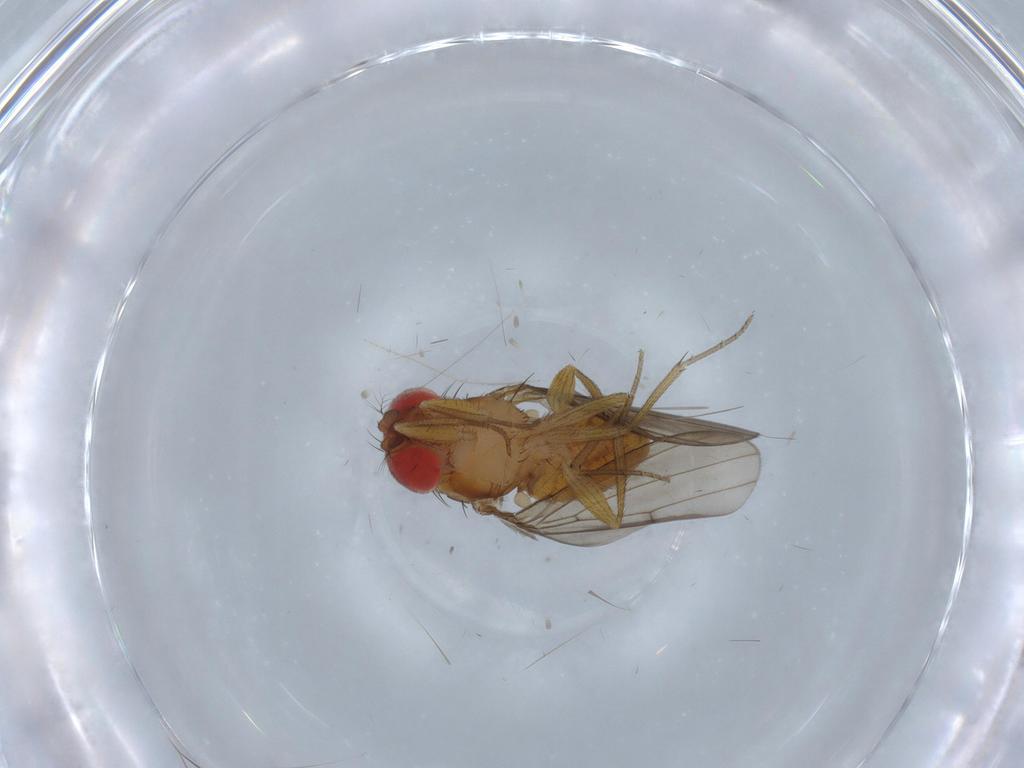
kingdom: Animalia
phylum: Arthropoda
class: Insecta
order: Diptera
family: Drosophilidae
